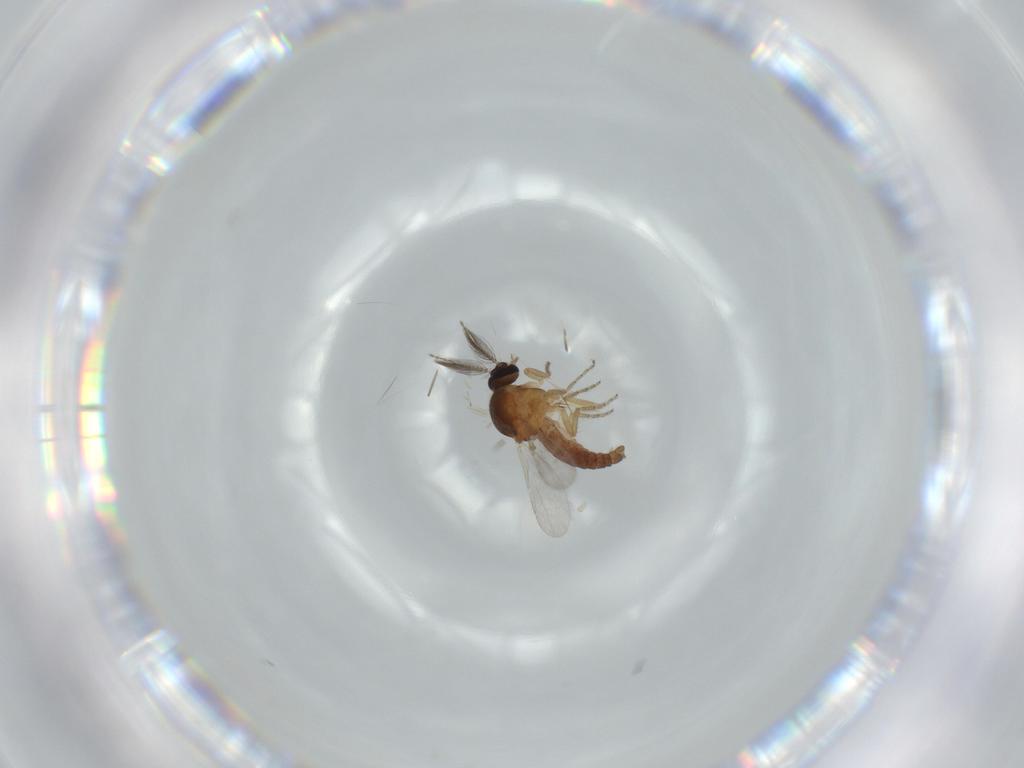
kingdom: Animalia
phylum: Arthropoda
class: Insecta
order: Diptera
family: Ceratopogonidae
